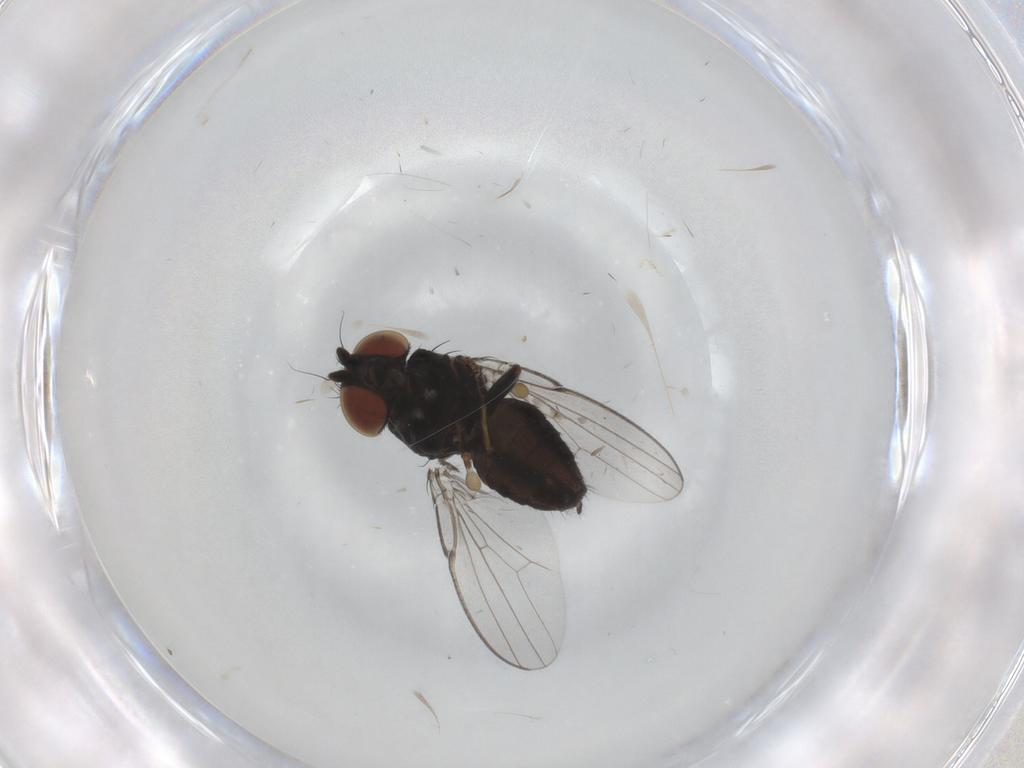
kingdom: Animalia
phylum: Arthropoda
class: Insecta
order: Diptera
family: Milichiidae
